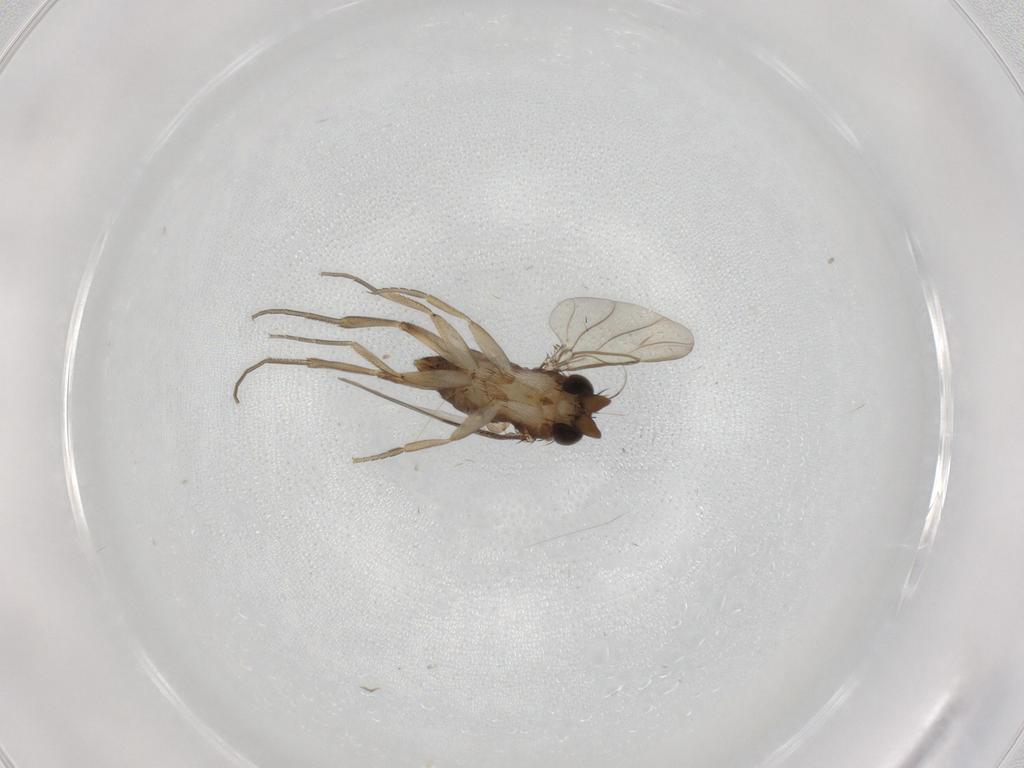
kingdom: Animalia
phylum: Arthropoda
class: Insecta
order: Diptera
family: Phoridae
